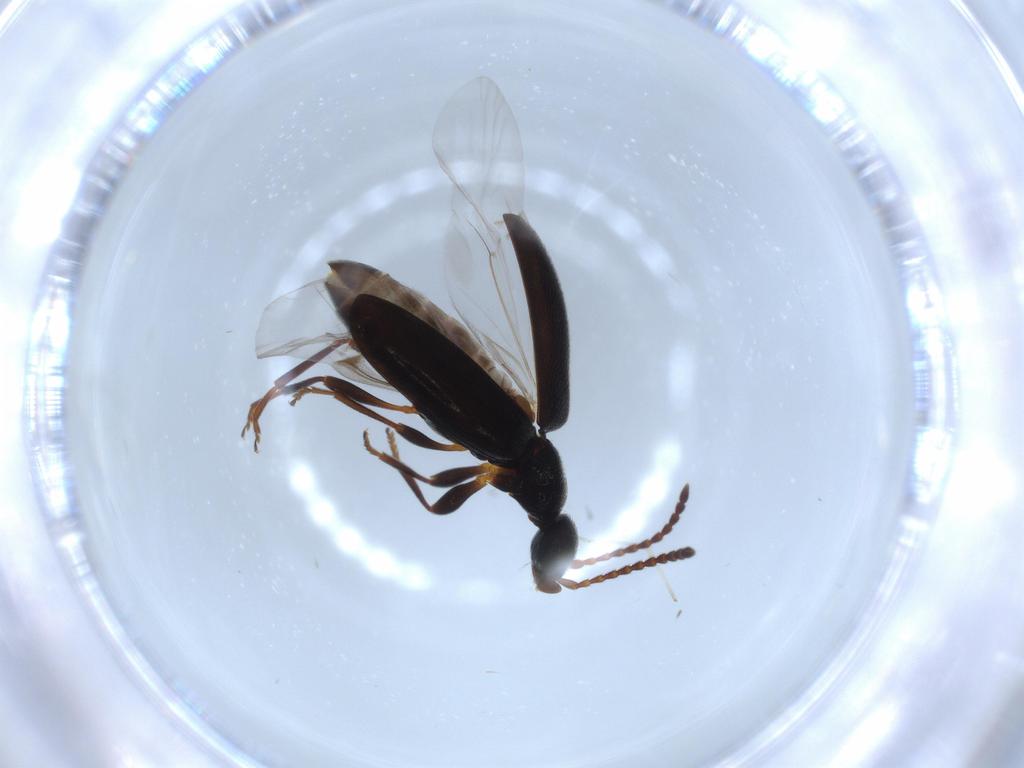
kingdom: Animalia
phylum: Arthropoda
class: Insecta
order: Coleoptera
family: Anthicidae
